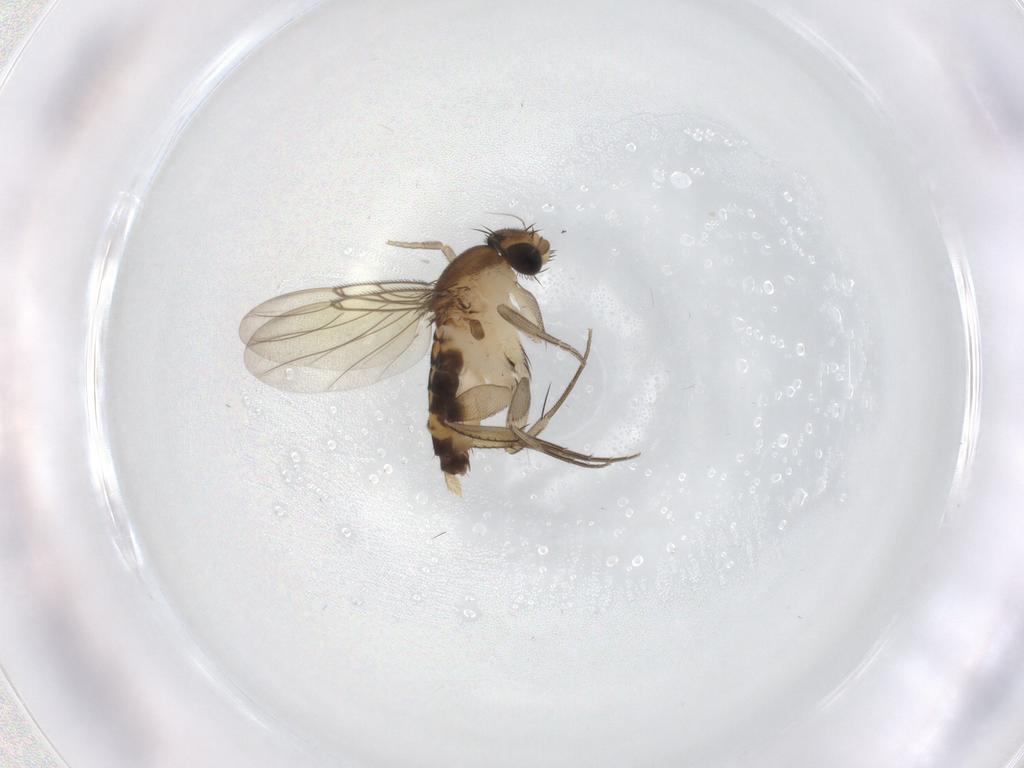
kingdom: Animalia
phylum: Arthropoda
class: Insecta
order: Diptera
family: Phoridae
